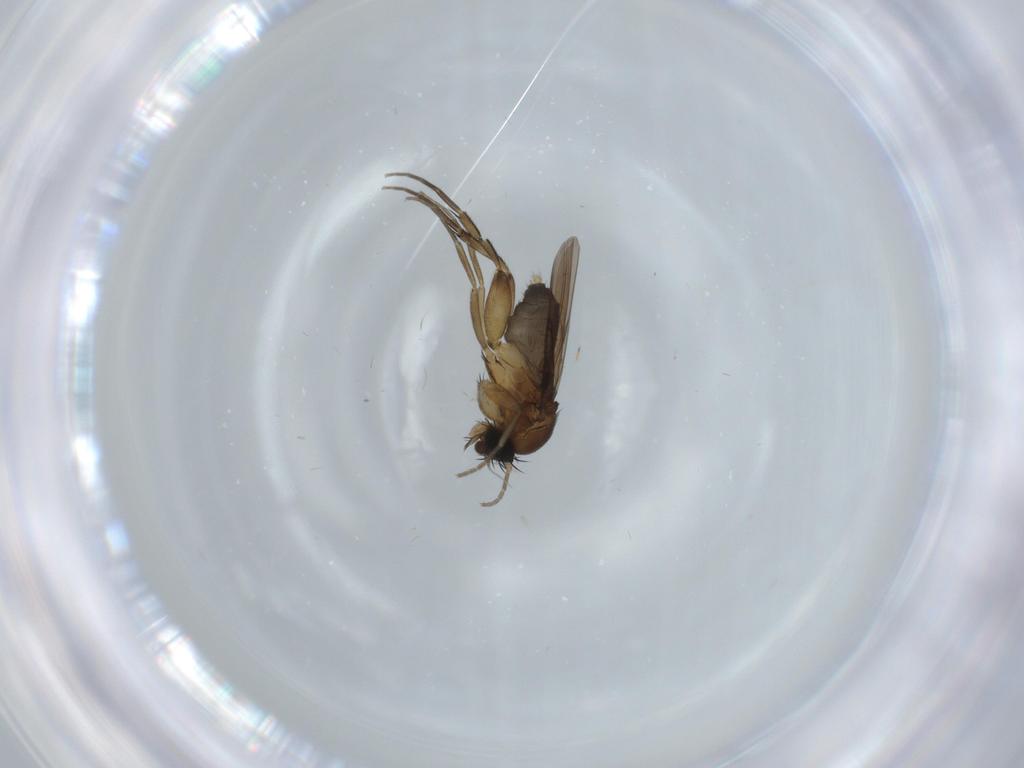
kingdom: Animalia
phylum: Arthropoda
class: Insecta
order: Diptera
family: Phoridae
